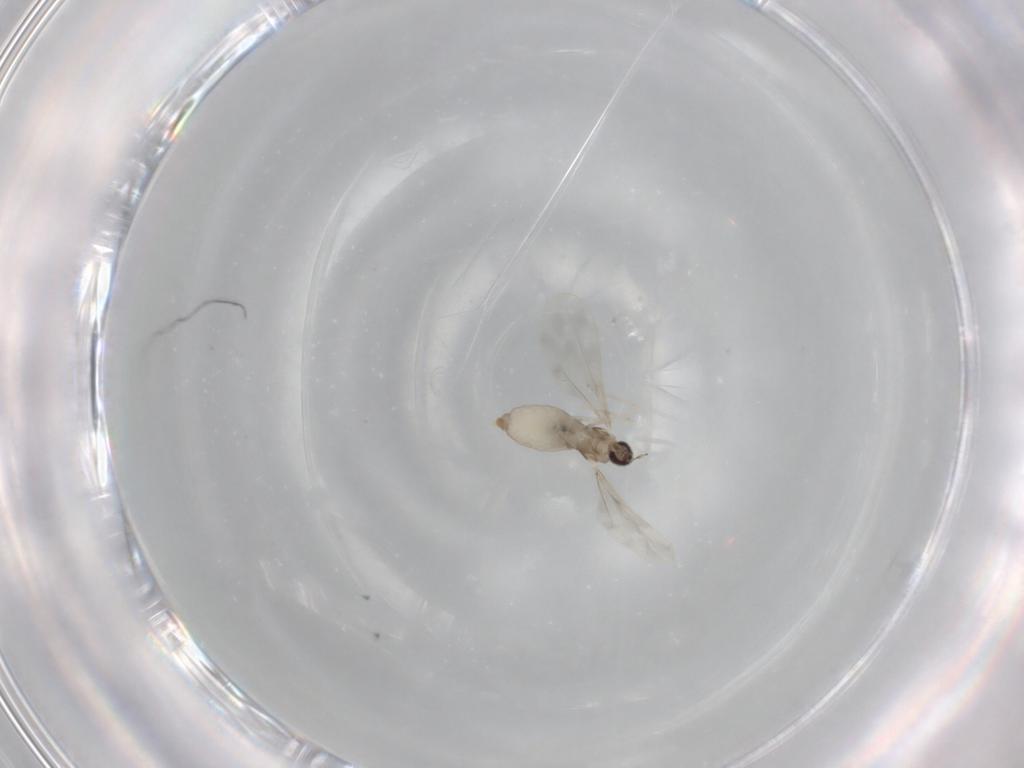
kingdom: Animalia
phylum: Arthropoda
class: Insecta
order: Diptera
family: Cecidomyiidae
